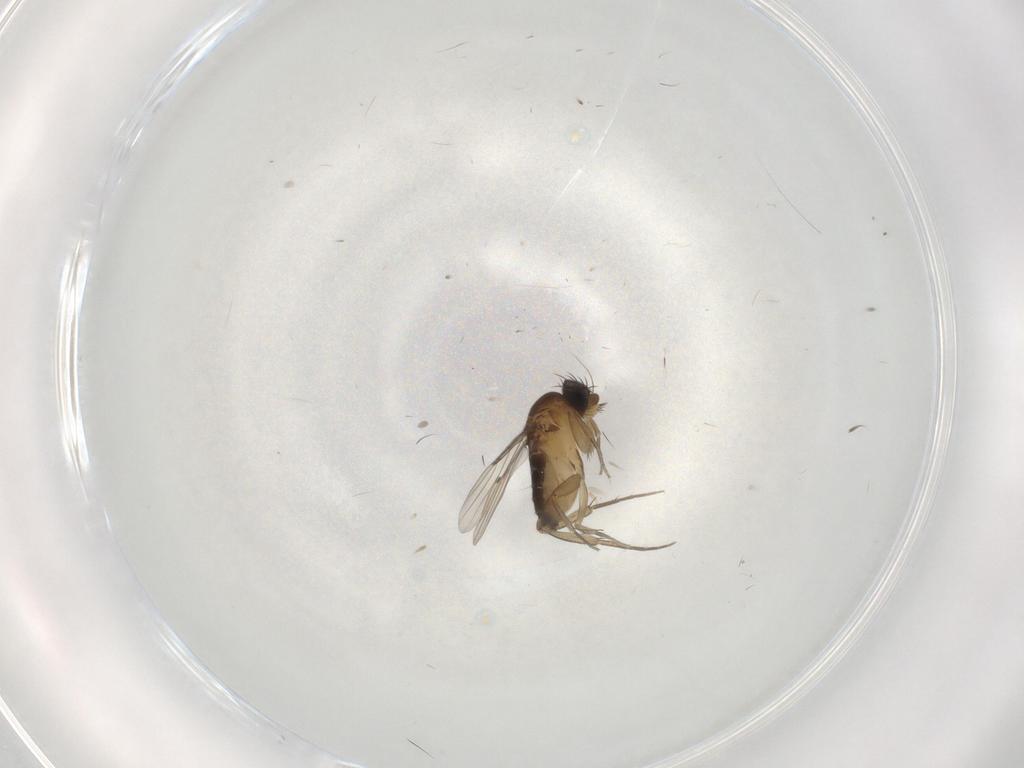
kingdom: Animalia
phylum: Arthropoda
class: Insecta
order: Diptera
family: Phoridae
